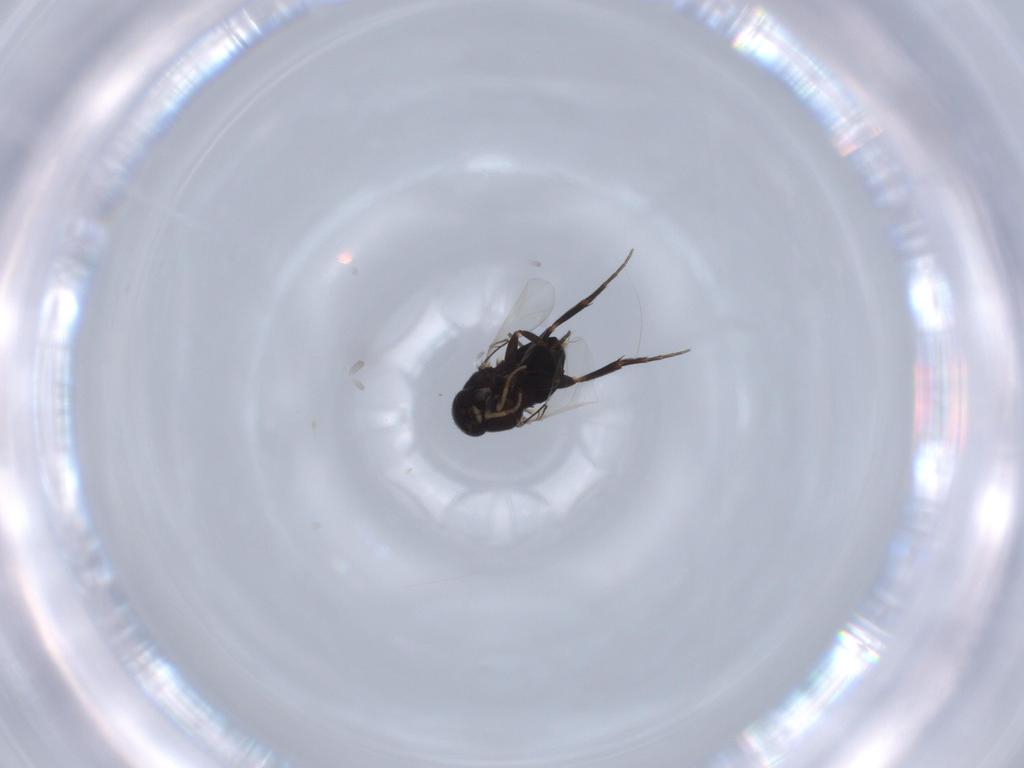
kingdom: Animalia
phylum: Arthropoda
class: Insecta
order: Diptera
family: Phoridae
